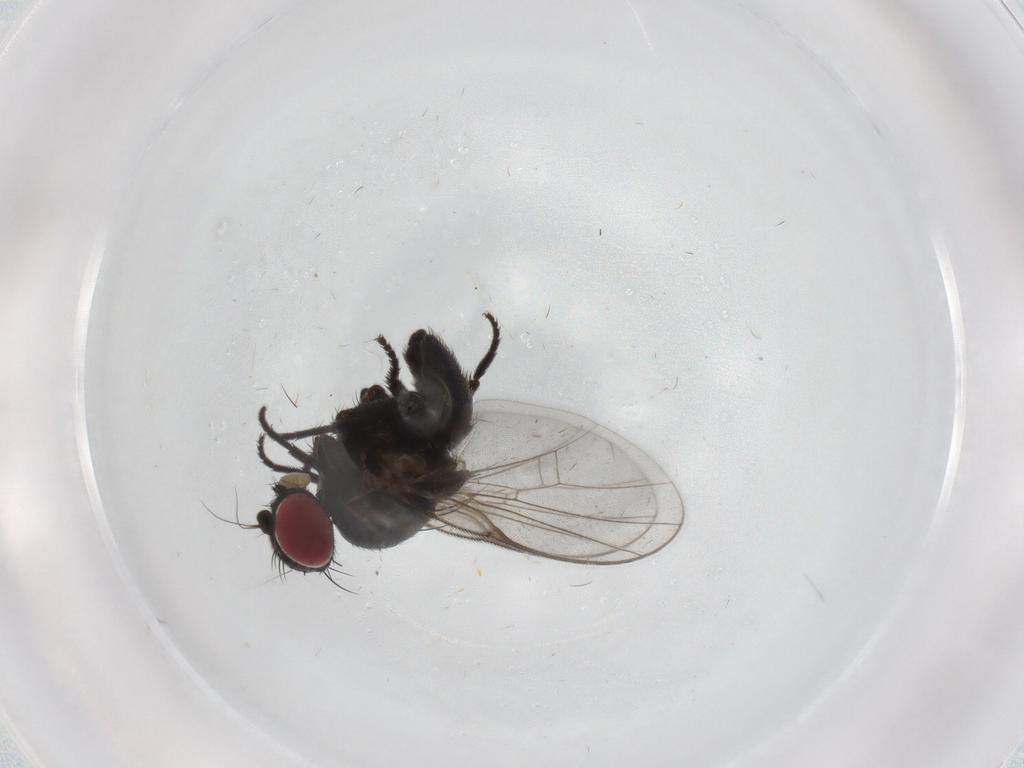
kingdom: Animalia
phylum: Arthropoda
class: Insecta
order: Diptera
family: Agromyzidae
